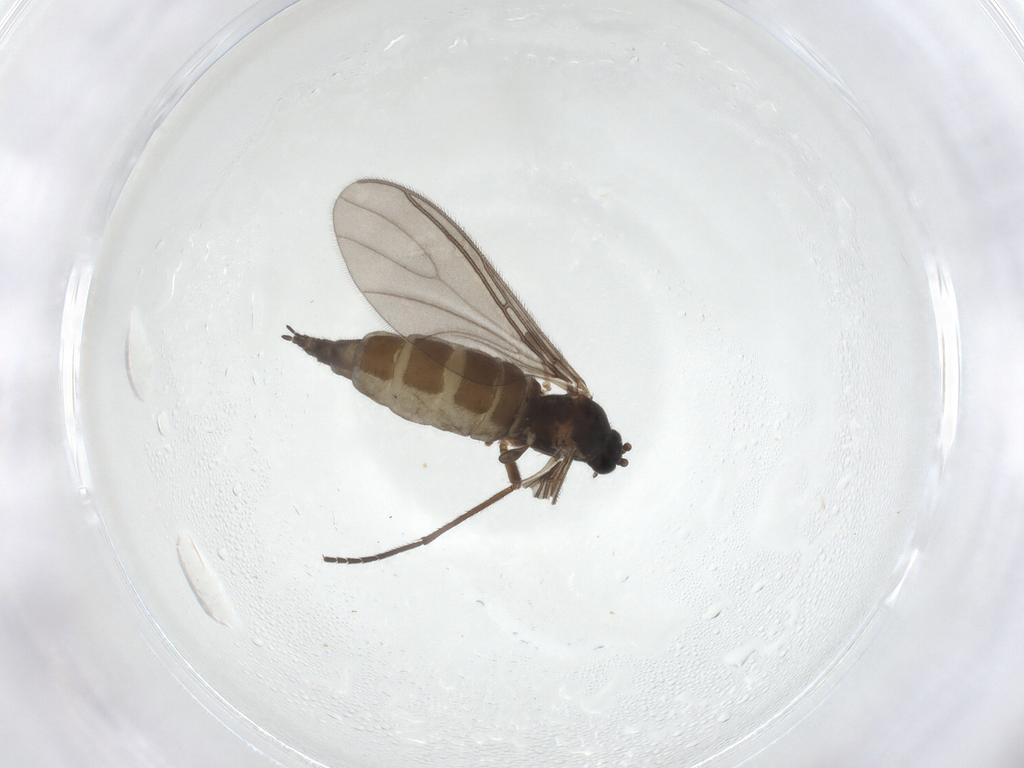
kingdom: Animalia
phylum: Arthropoda
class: Insecta
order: Diptera
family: Sciaridae
